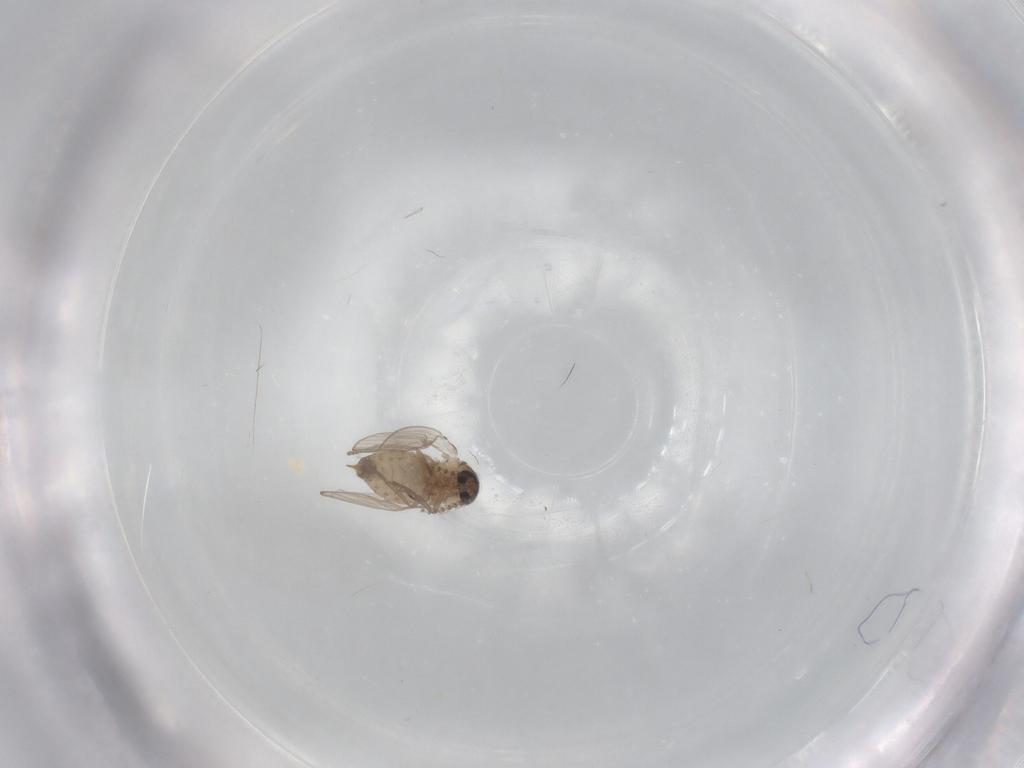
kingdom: Animalia
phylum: Arthropoda
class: Insecta
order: Diptera
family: Psychodidae
